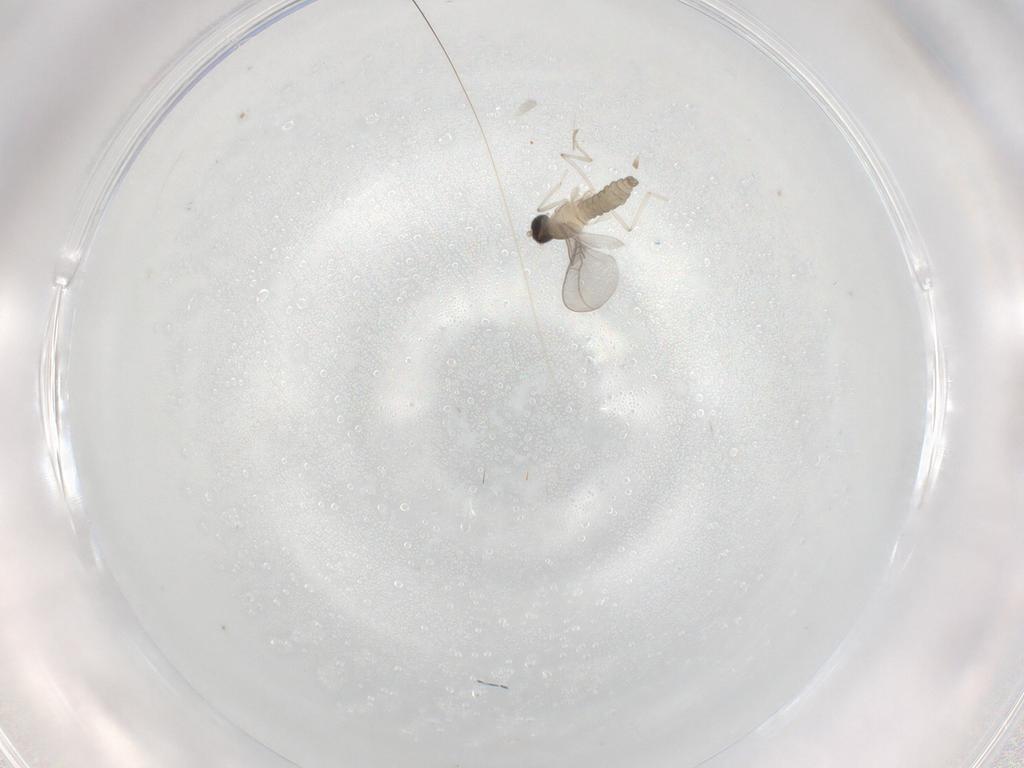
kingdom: Animalia
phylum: Arthropoda
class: Insecta
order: Diptera
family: Cecidomyiidae
